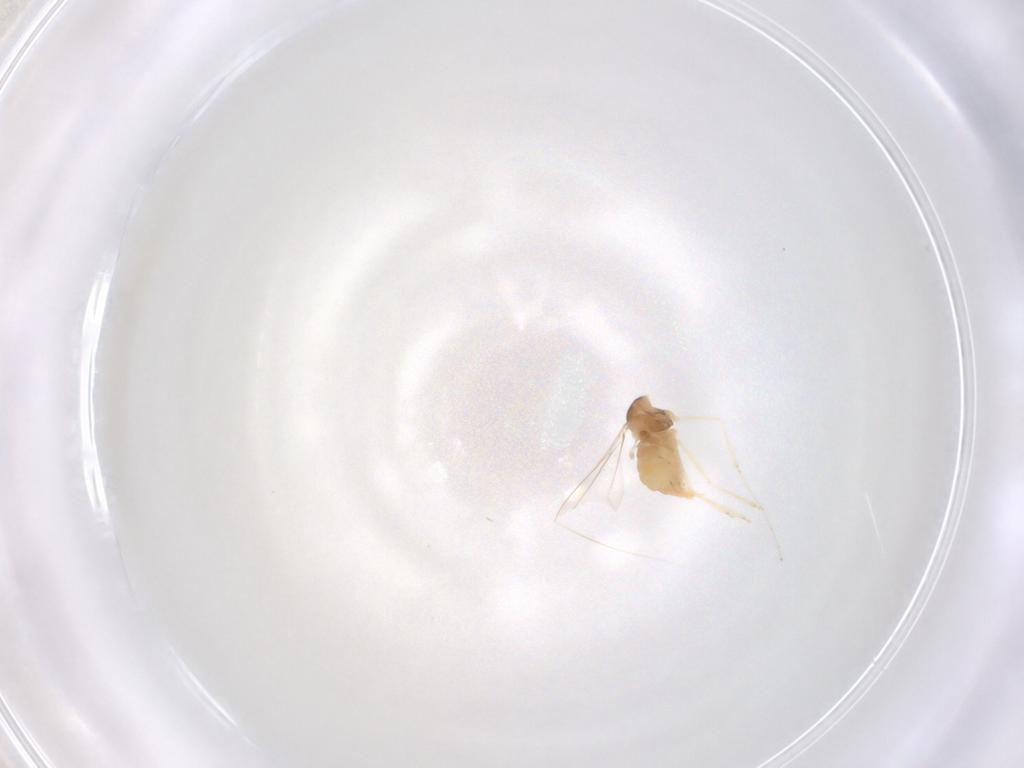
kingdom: Animalia
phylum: Arthropoda
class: Insecta
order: Diptera
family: Cecidomyiidae
